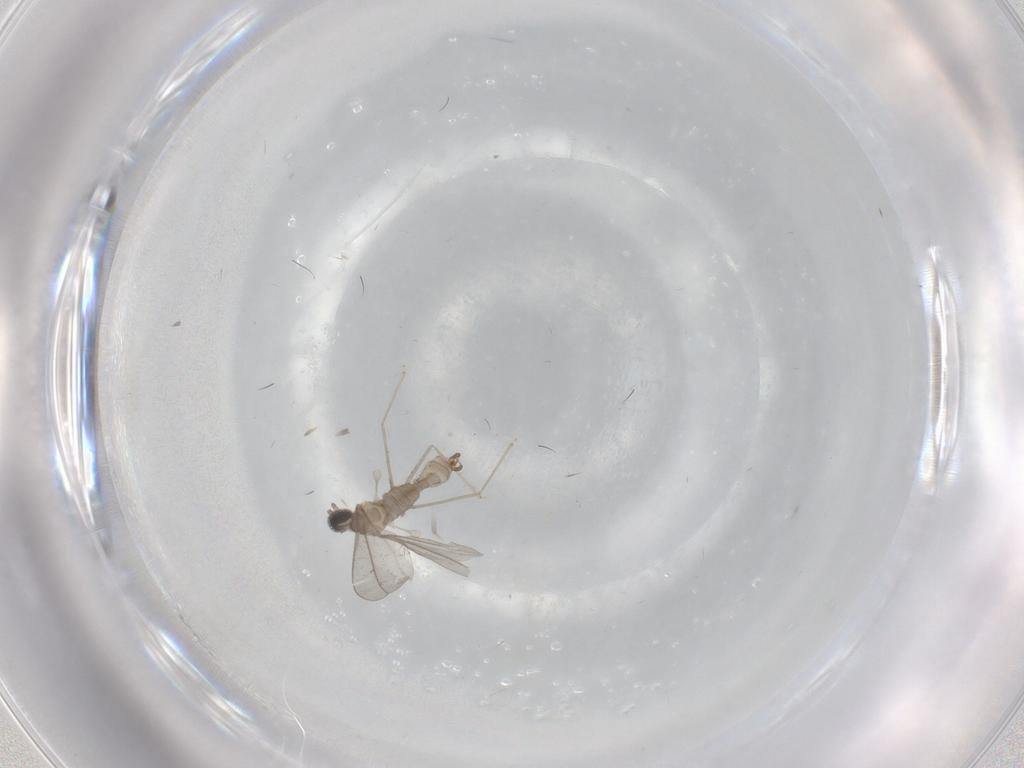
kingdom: Animalia
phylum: Arthropoda
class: Insecta
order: Diptera
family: Phoridae
